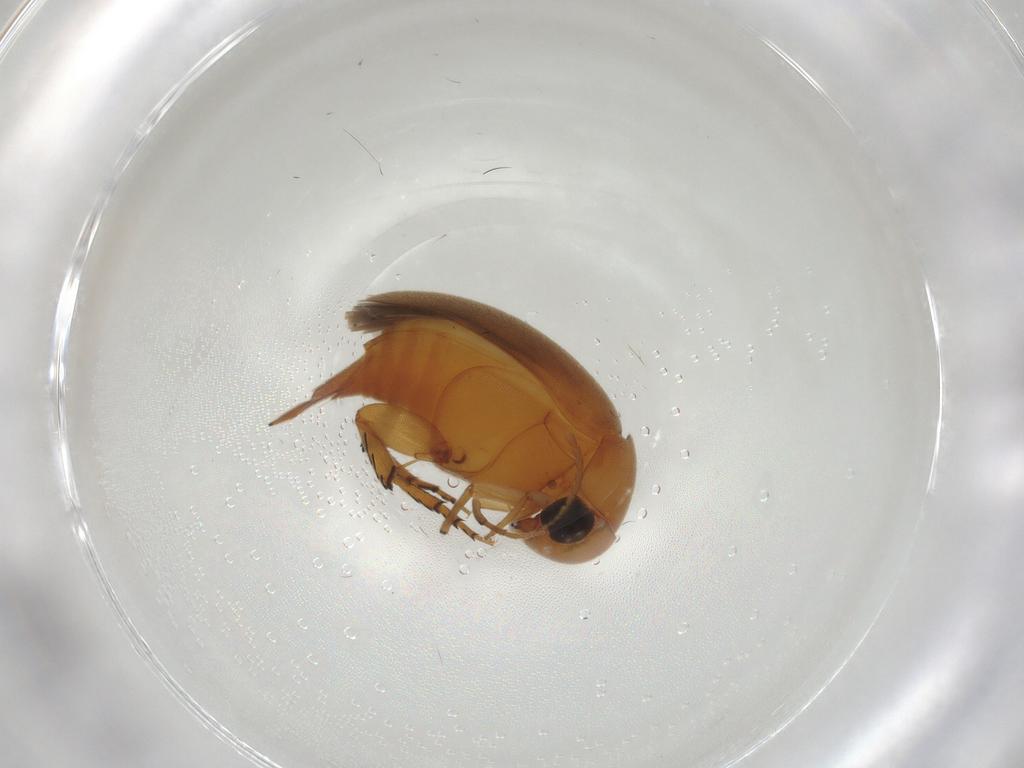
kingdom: Animalia
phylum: Arthropoda
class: Insecta
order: Coleoptera
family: Mordellidae
